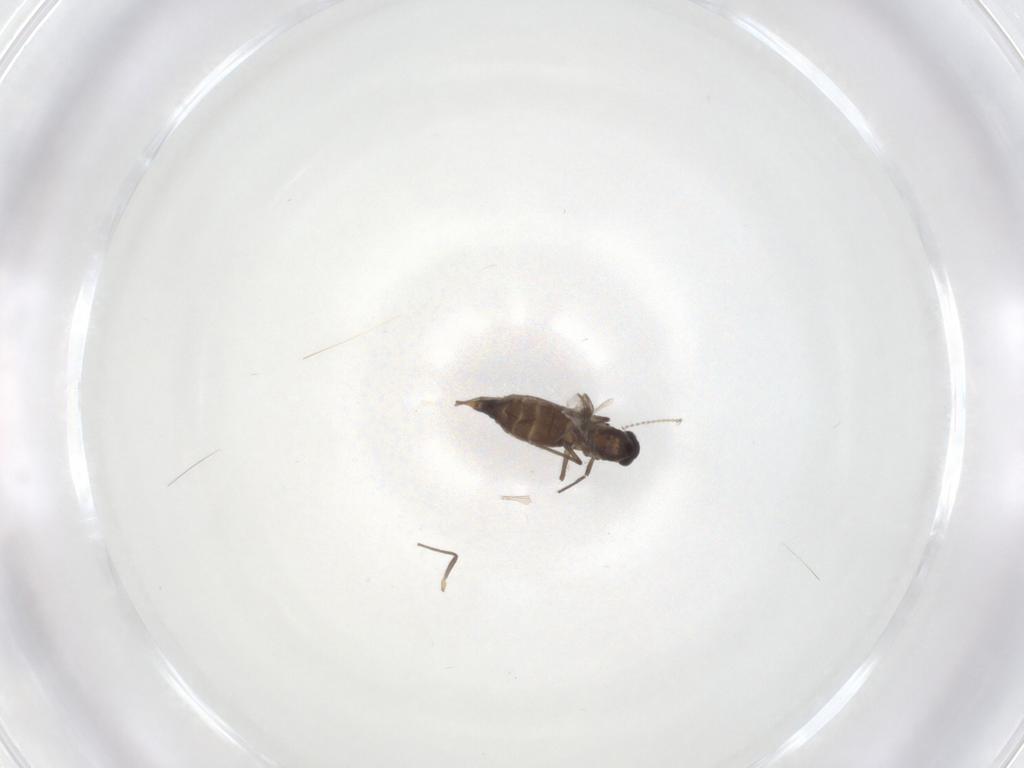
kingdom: Animalia
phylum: Arthropoda
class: Insecta
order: Diptera
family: Chironomidae
